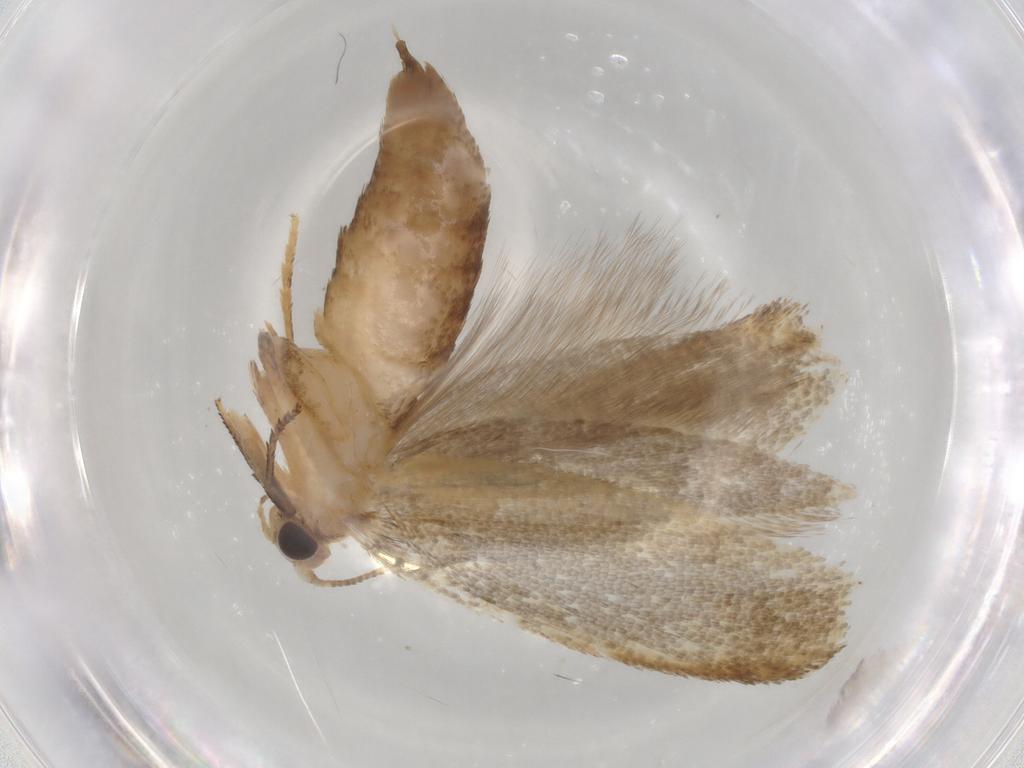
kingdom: Animalia
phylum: Arthropoda
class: Insecta
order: Lepidoptera
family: Nepticulidae
